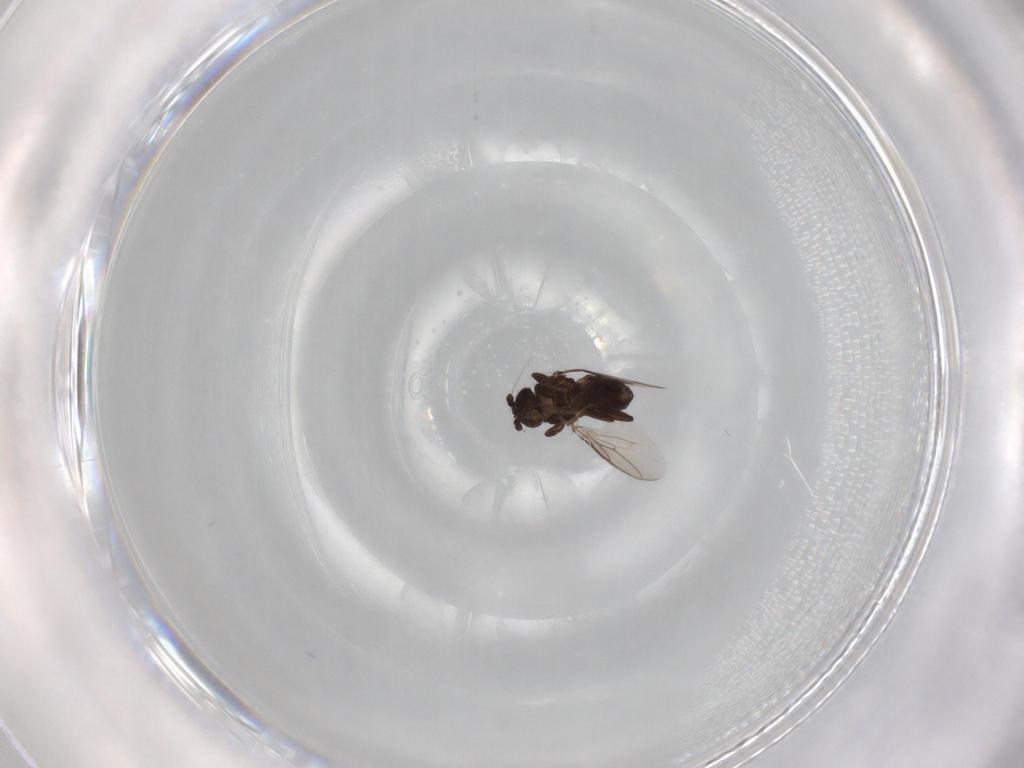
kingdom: Animalia
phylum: Arthropoda
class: Insecta
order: Diptera
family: Sphaeroceridae
